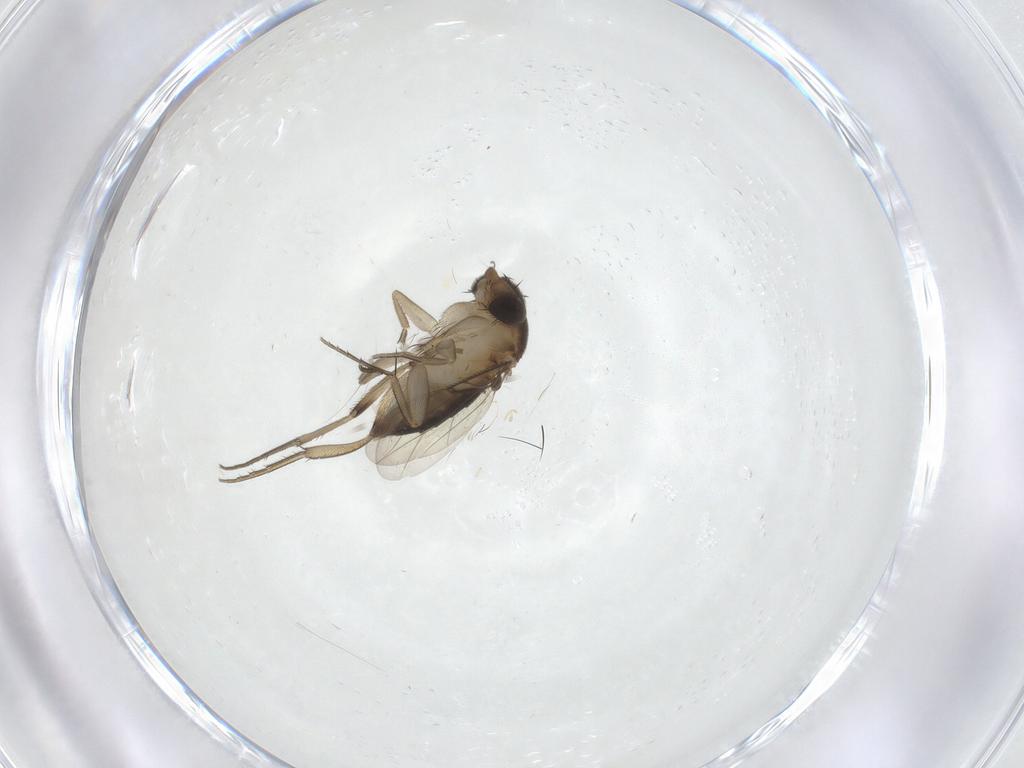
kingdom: Animalia
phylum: Arthropoda
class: Insecta
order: Diptera
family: Phoridae
